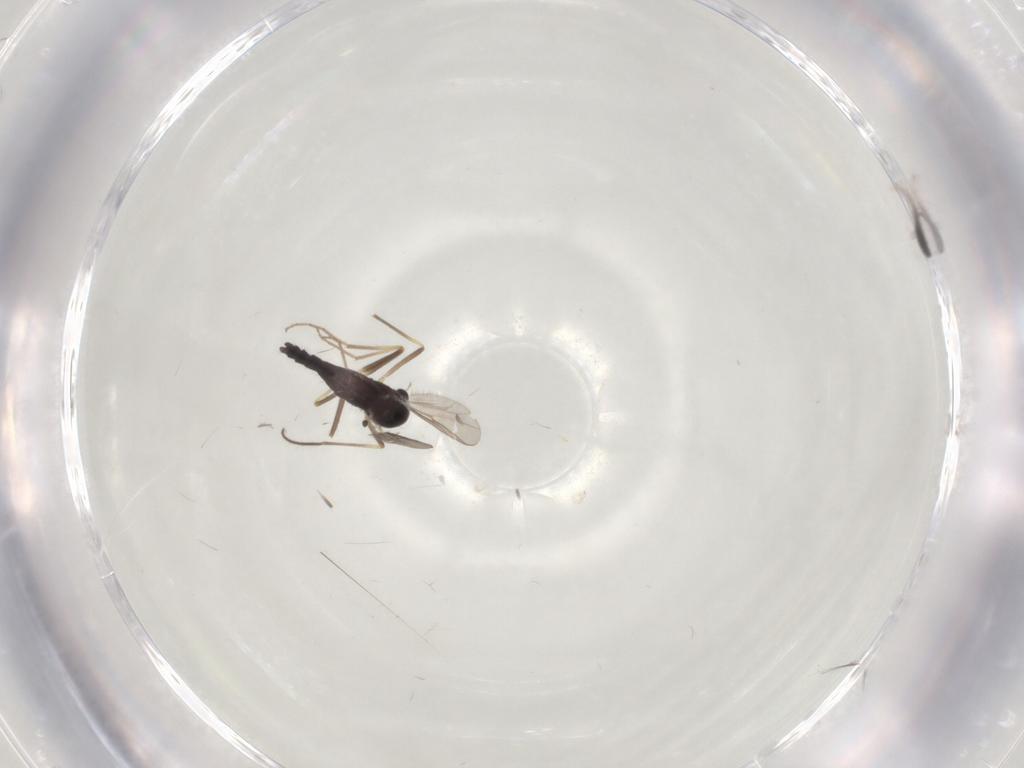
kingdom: Animalia
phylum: Arthropoda
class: Insecta
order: Diptera
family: Chironomidae
